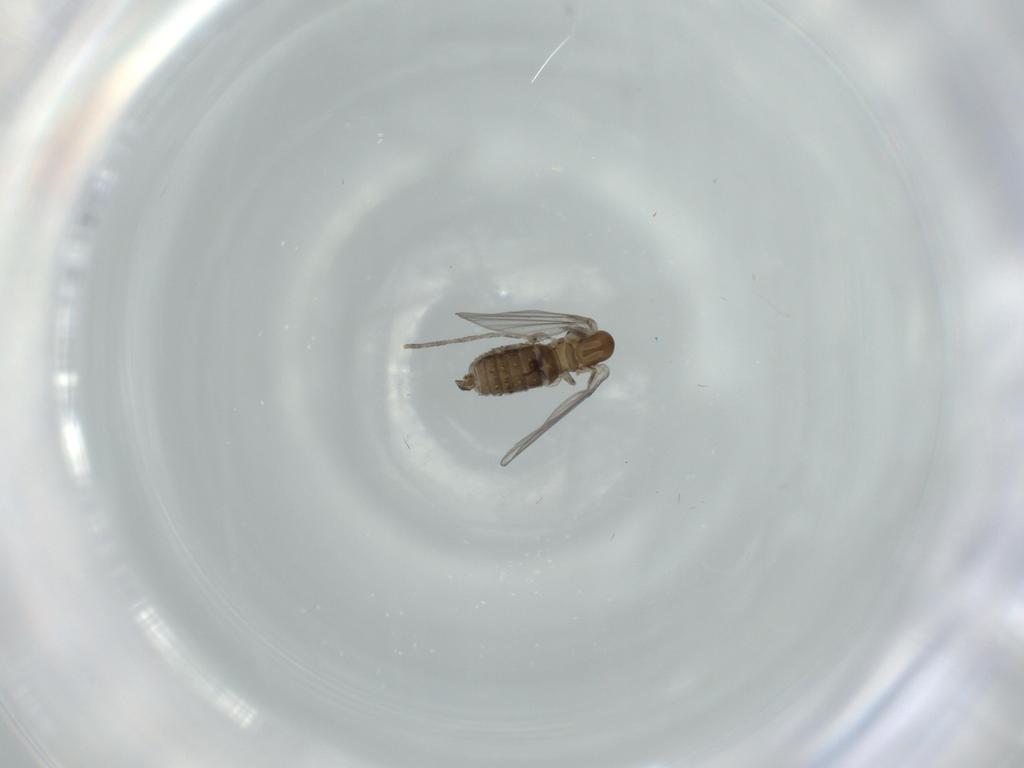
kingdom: Animalia
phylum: Arthropoda
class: Insecta
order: Diptera
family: Psychodidae
